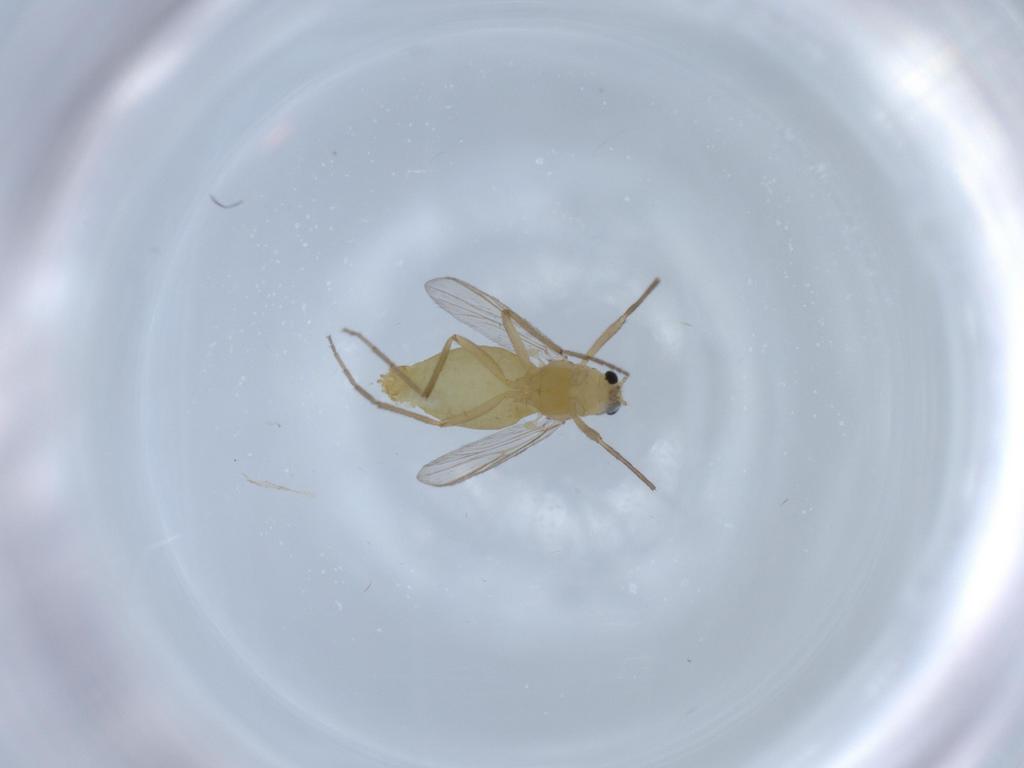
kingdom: Animalia
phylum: Arthropoda
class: Insecta
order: Diptera
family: Chironomidae
